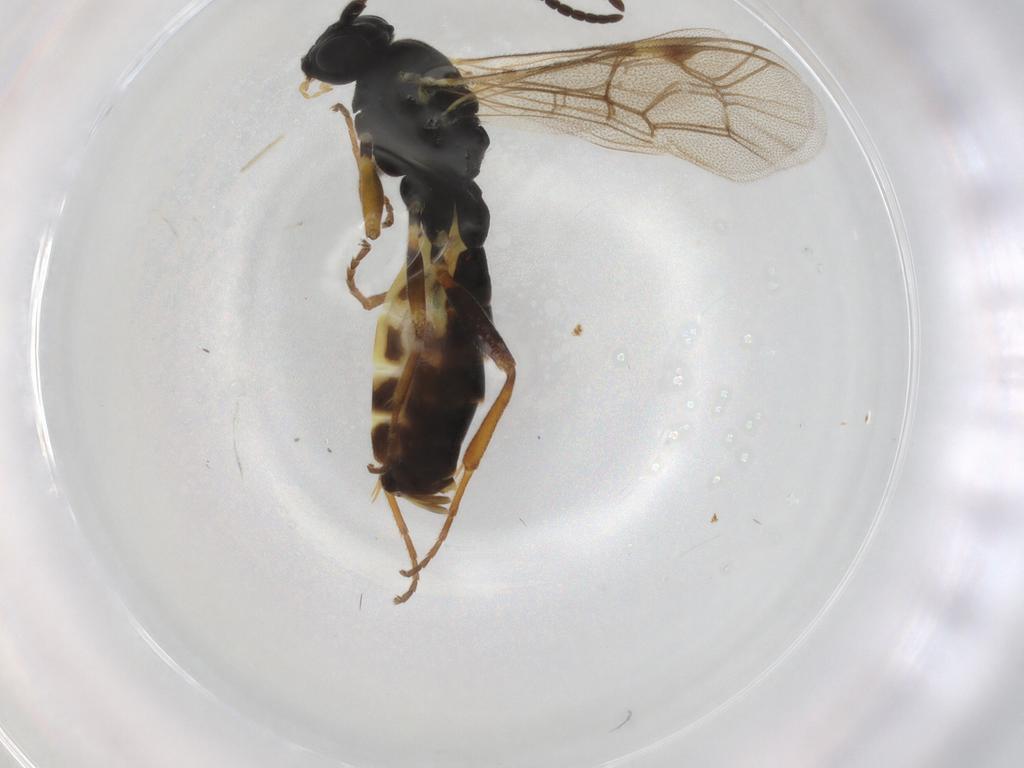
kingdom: Animalia
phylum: Arthropoda
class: Insecta
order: Hymenoptera
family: Ichneumonidae
